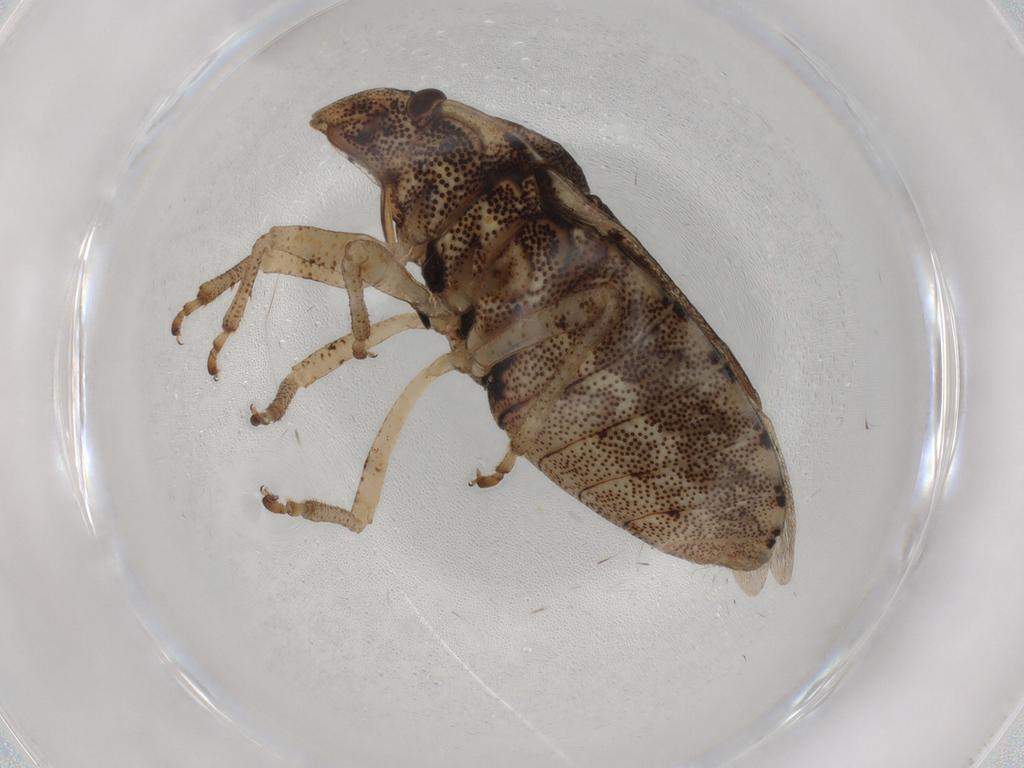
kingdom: Animalia
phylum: Arthropoda
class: Insecta
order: Hemiptera
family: Pentatomidae
